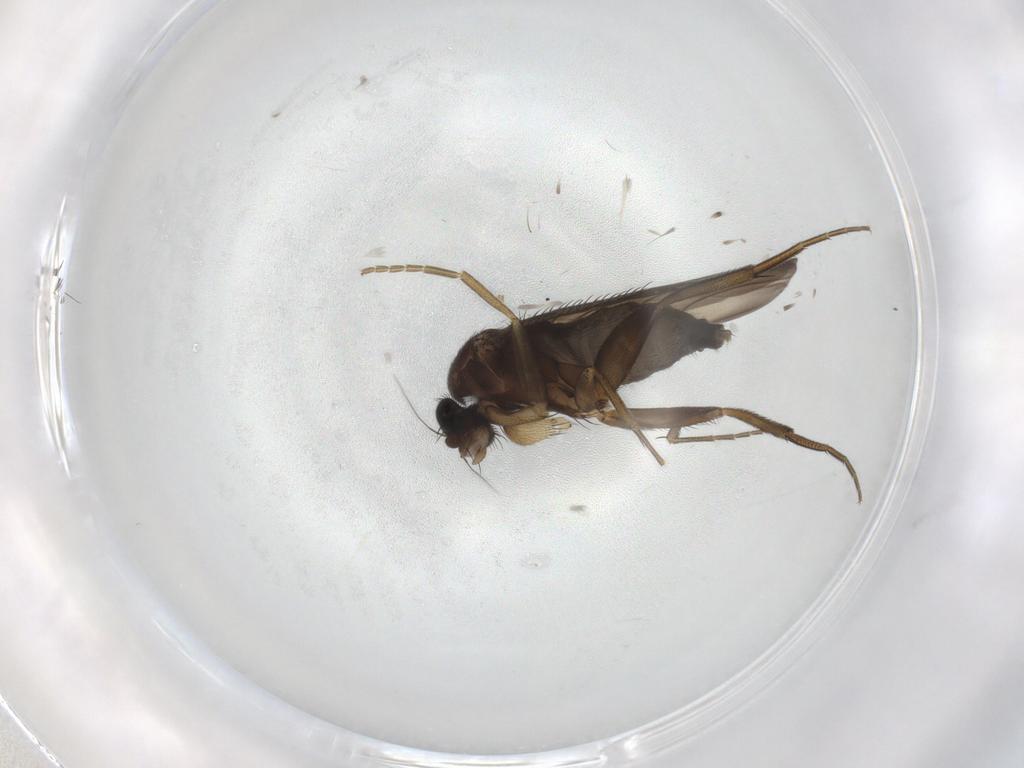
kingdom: Animalia
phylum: Arthropoda
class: Insecta
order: Diptera
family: Phoridae
